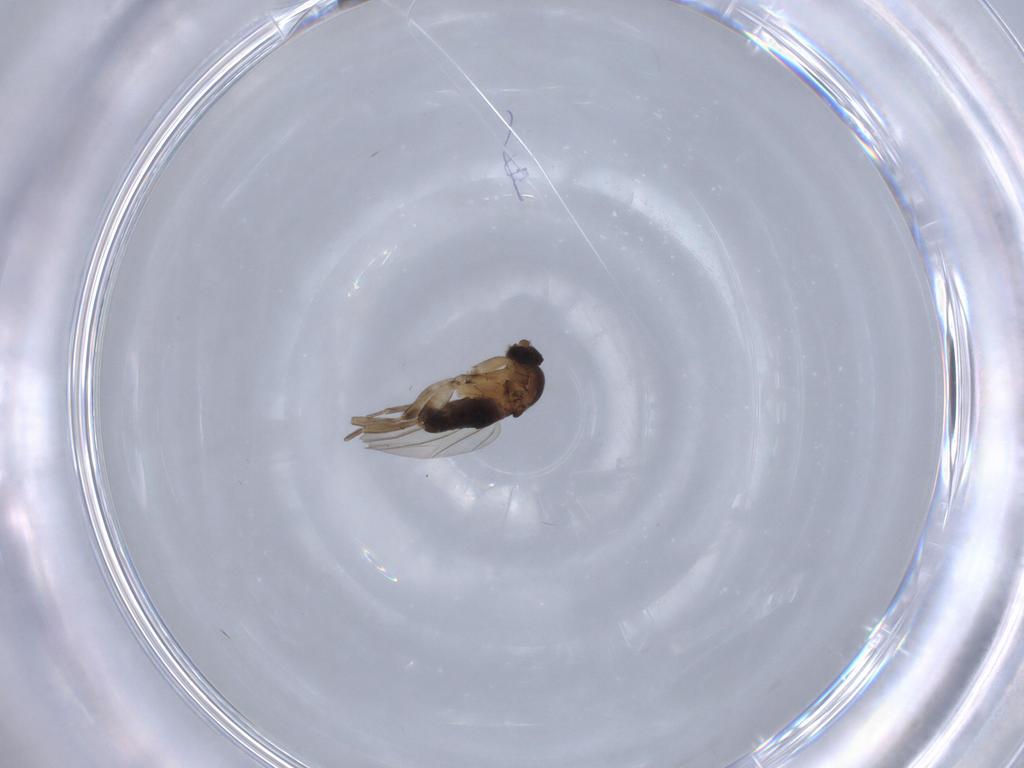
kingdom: Animalia
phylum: Arthropoda
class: Insecta
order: Diptera
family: Phoridae
